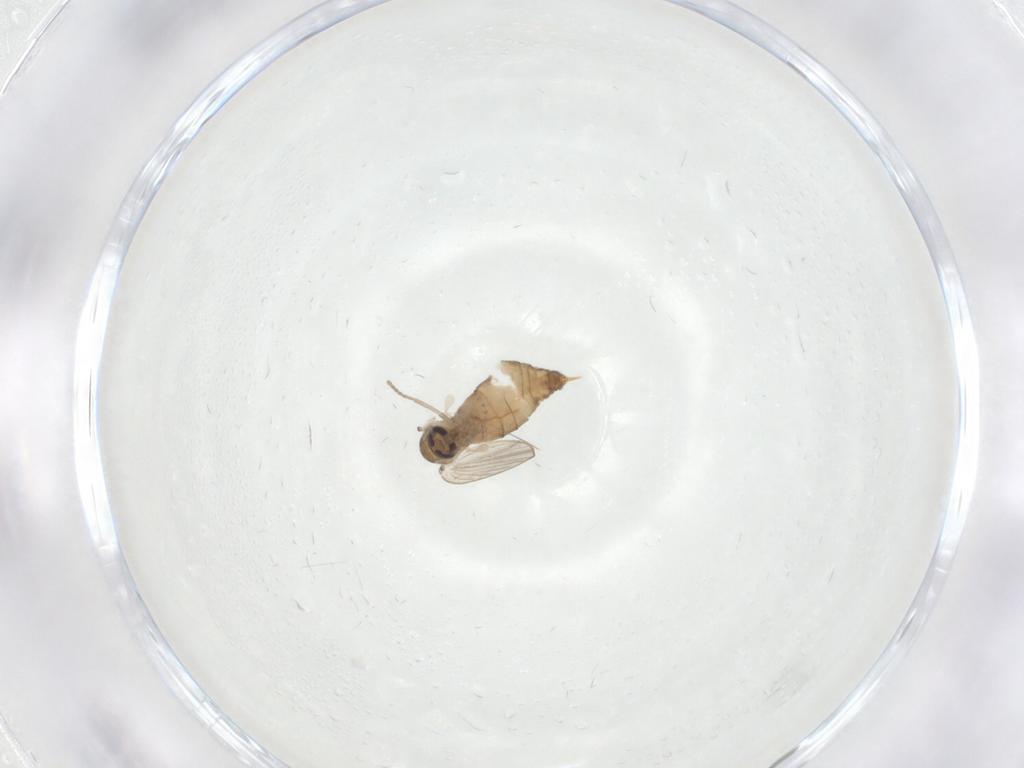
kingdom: Animalia
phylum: Arthropoda
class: Insecta
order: Diptera
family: Psychodidae
